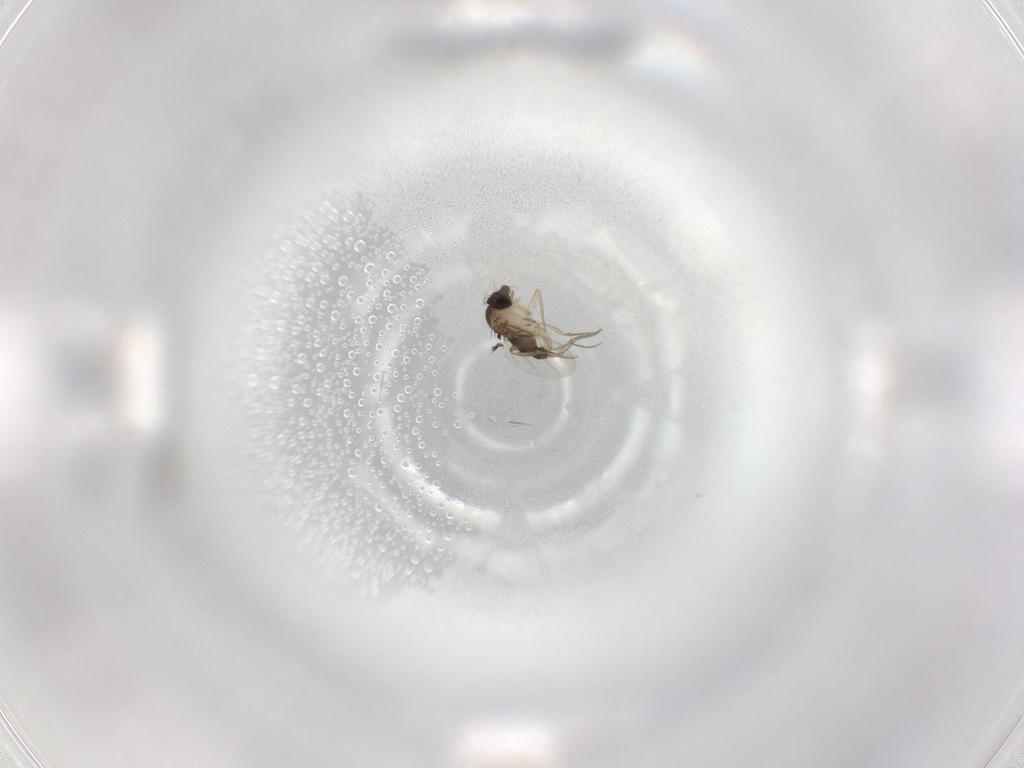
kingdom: Animalia
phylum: Arthropoda
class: Insecta
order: Diptera
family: Phoridae
